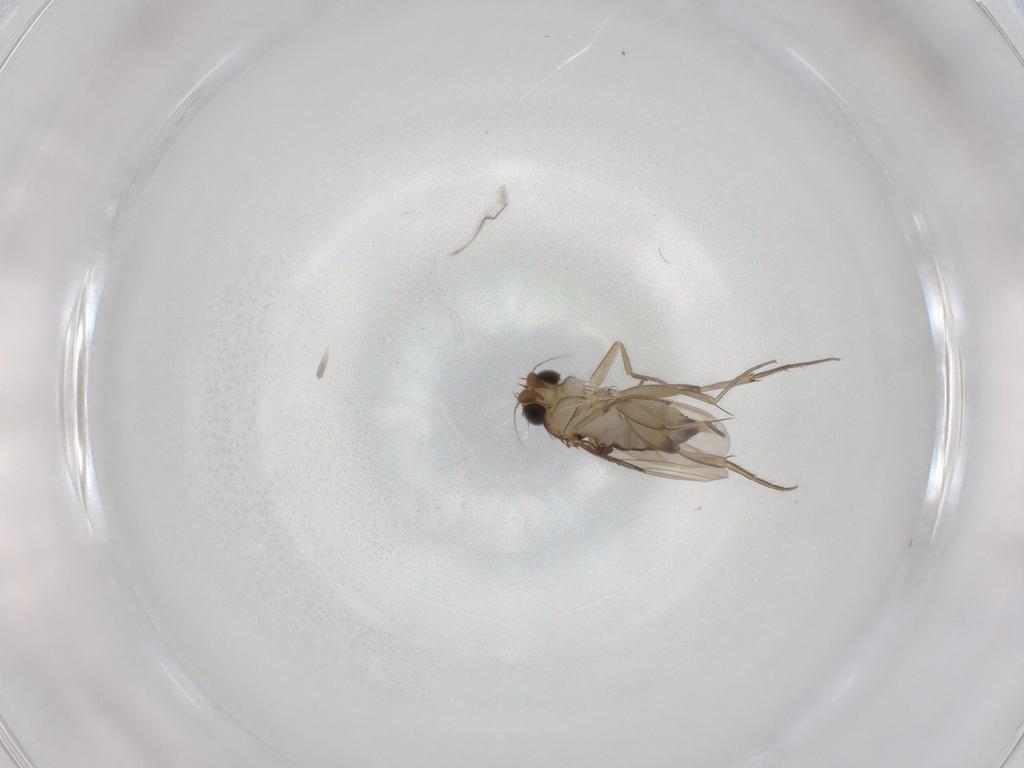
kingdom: Animalia
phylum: Arthropoda
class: Insecta
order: Diptera
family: Phoridae
